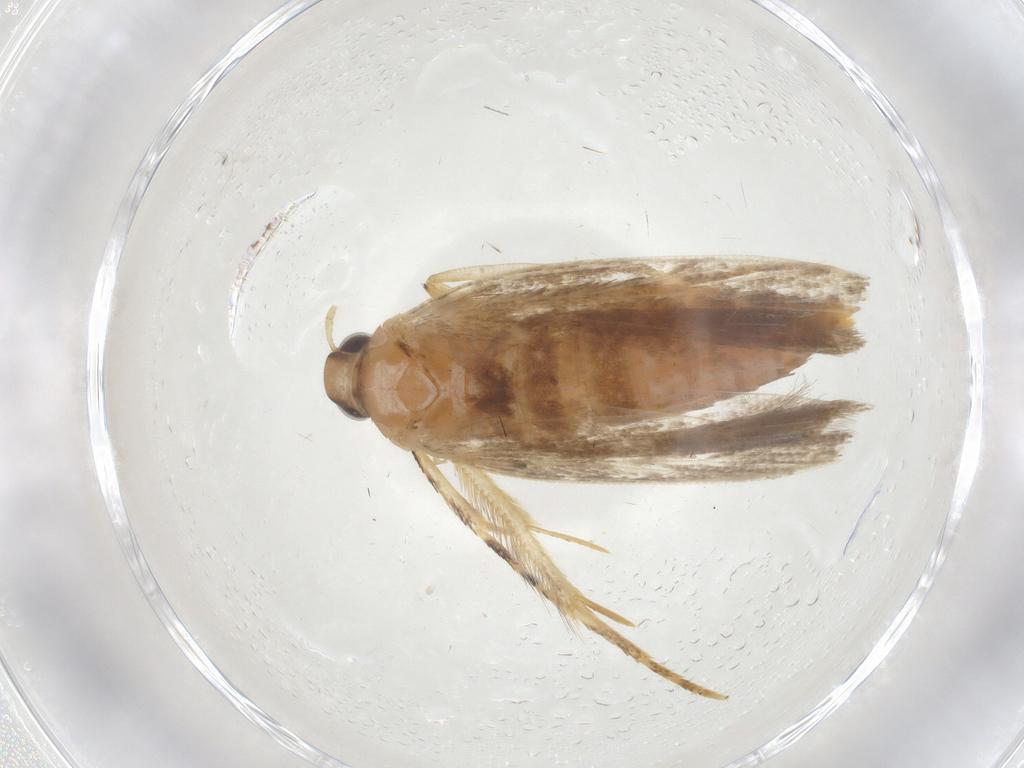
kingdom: Animalia
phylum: Arthropoda
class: Insecta
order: Lepidoptera
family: Gelechiidae
